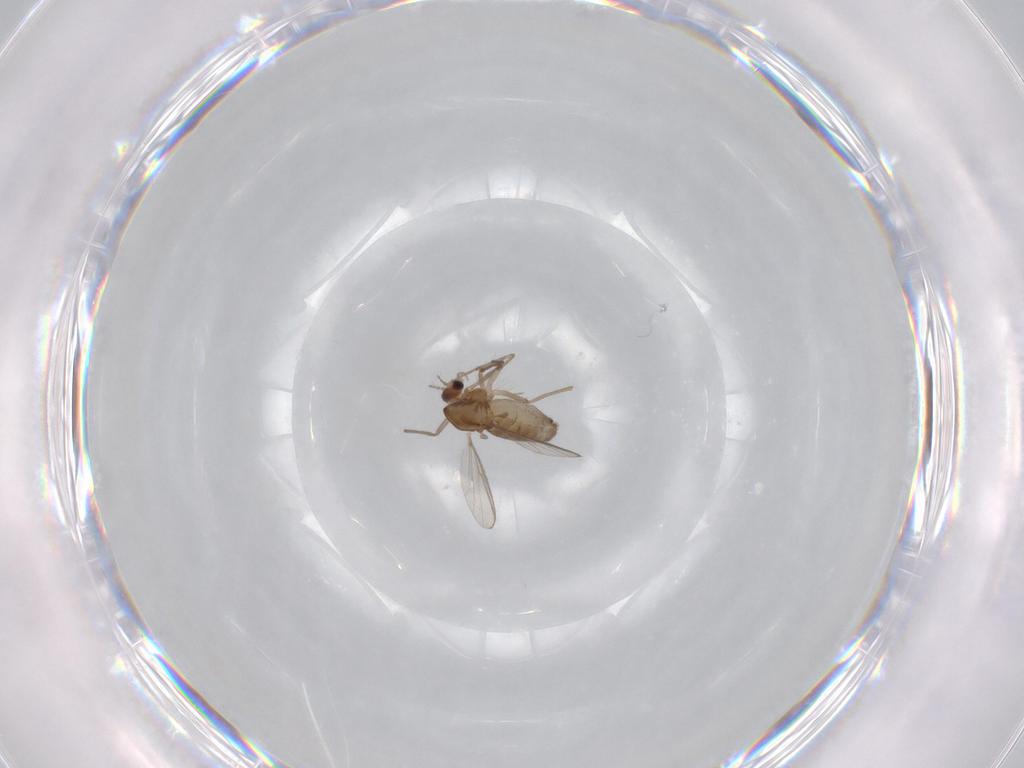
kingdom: Animalia
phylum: Arthropoda
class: Insecta
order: Diptera
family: Chironomidae
